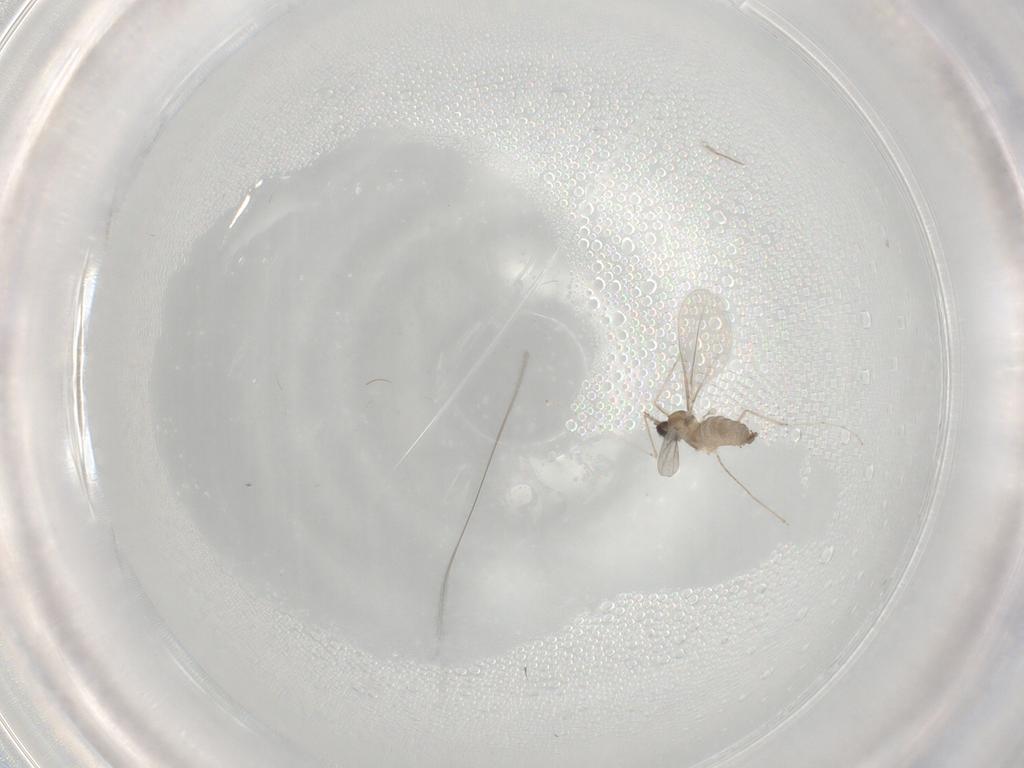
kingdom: Animalia
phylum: Arthropoda
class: Insecta
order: Diptera
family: Cecidomyiidae
